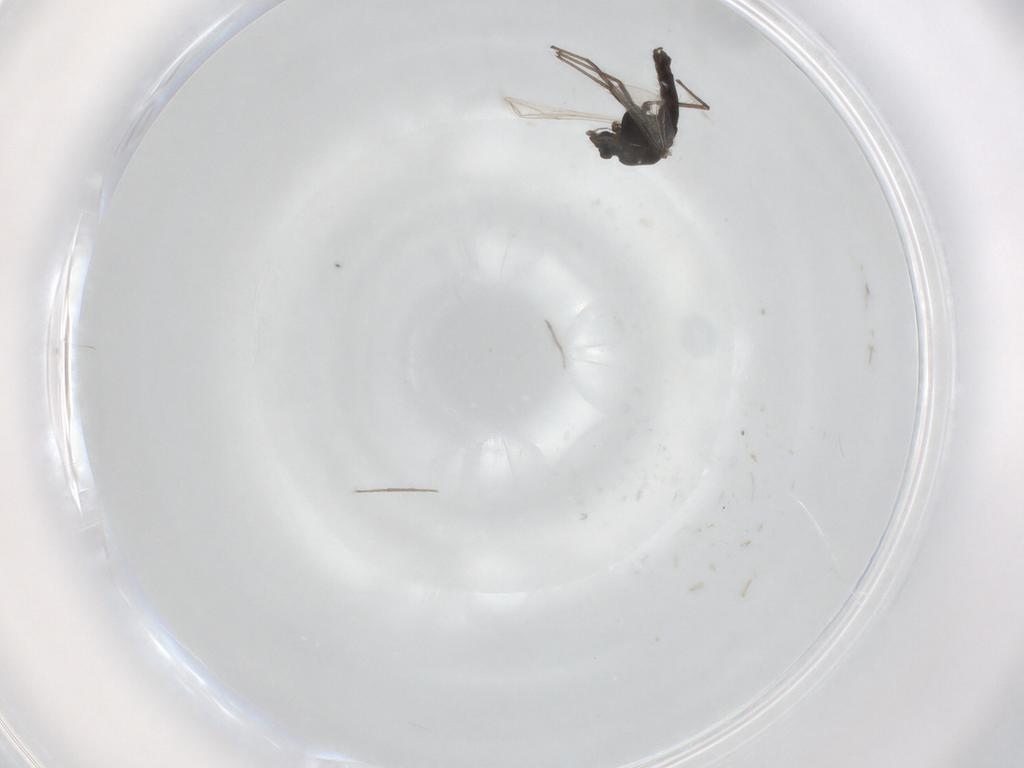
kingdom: Animalia
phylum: Arthropoda
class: Insecta
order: Diptera
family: Chironomidae
